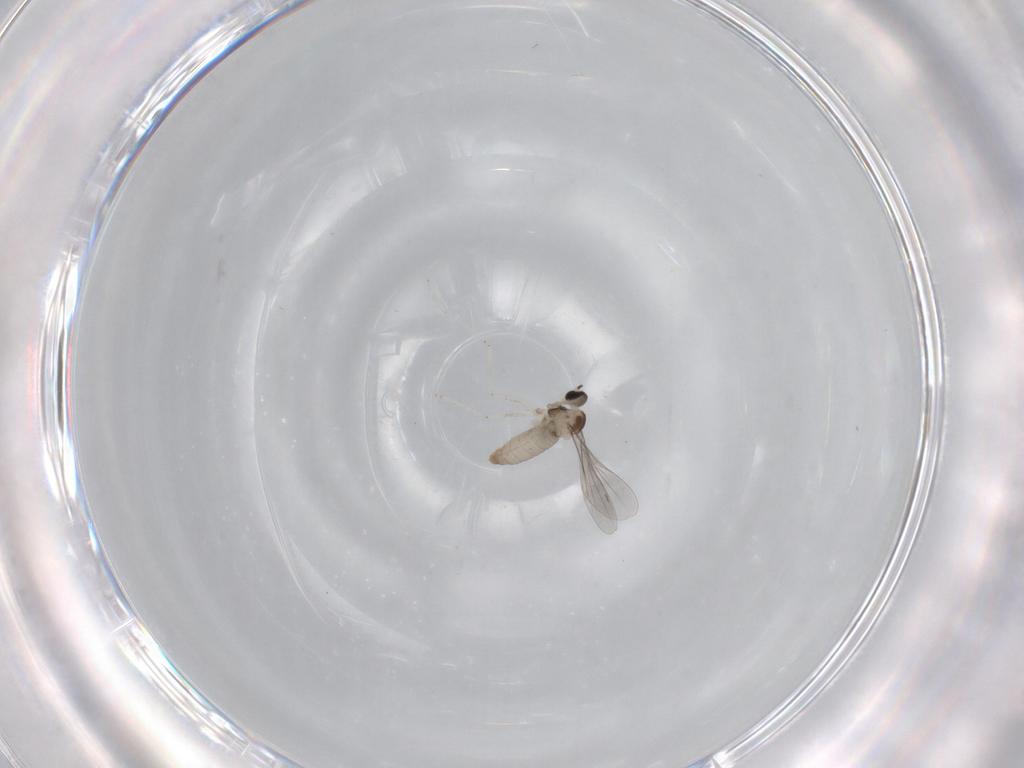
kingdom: Animalia
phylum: Arthropoda
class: Insecta
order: Diptera
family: Cecidomyiidae
